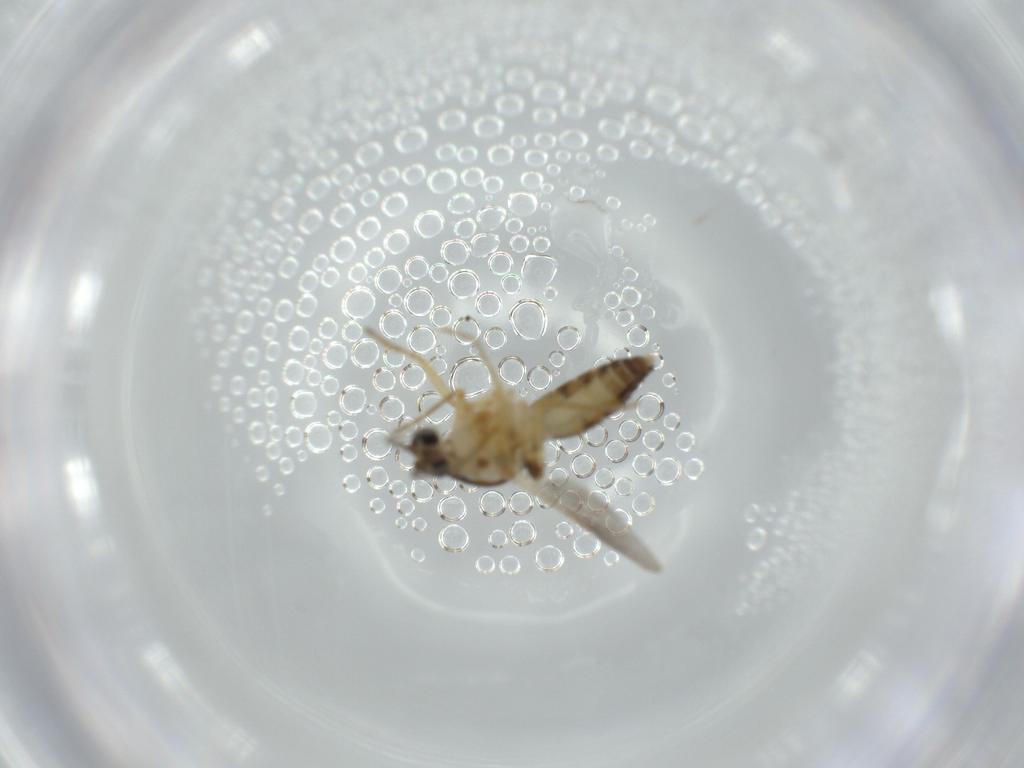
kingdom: Animalia
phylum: Arthropoda
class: Insecta
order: Diptera
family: Ceratopogonidae
